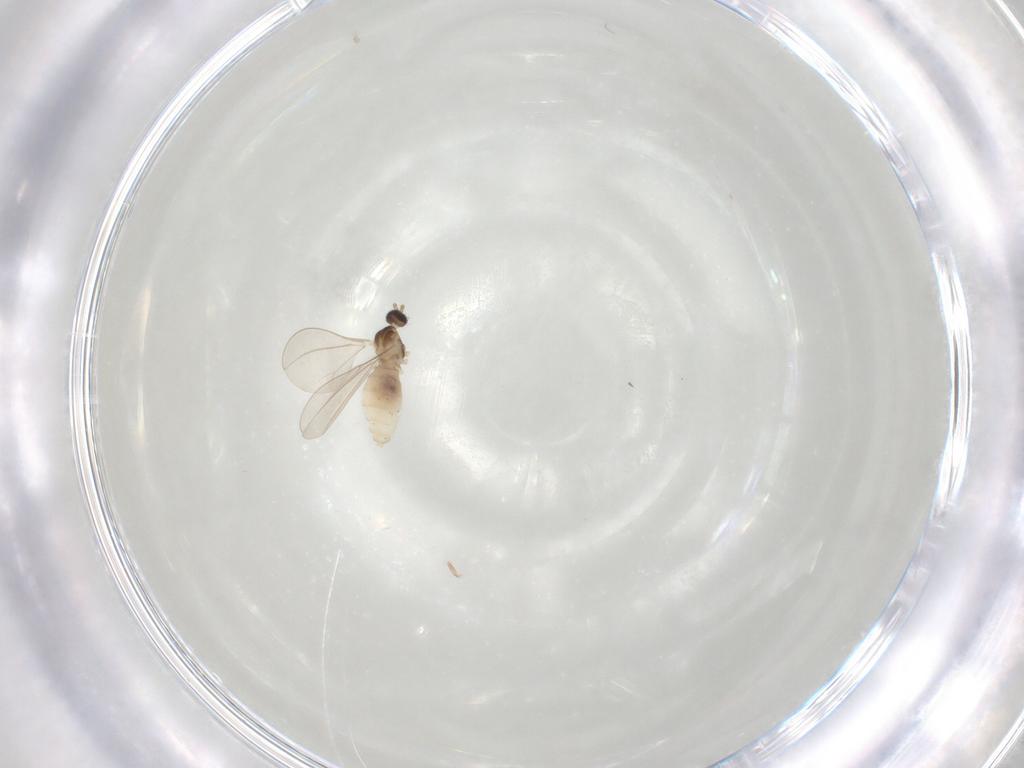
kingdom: Animalia
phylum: Arthropoda
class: Insecta
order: Diptera
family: Cecidomyiidae
